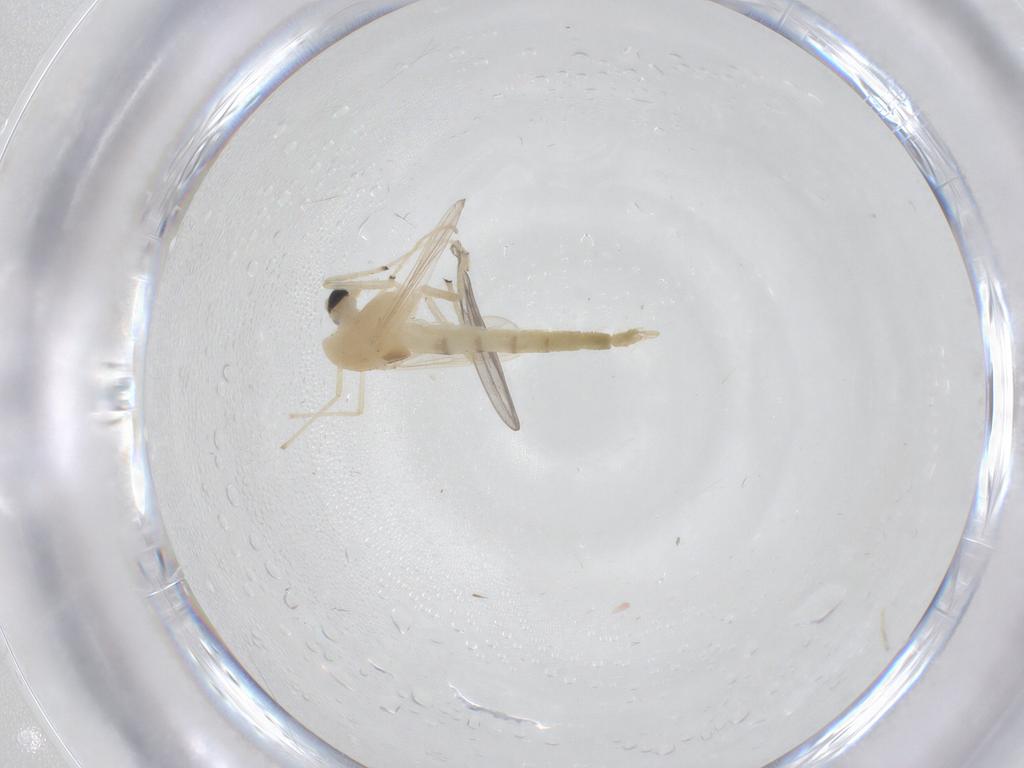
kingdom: Animalia
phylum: Arthropoda
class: Insecta
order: Diptera
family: Chironomidae
